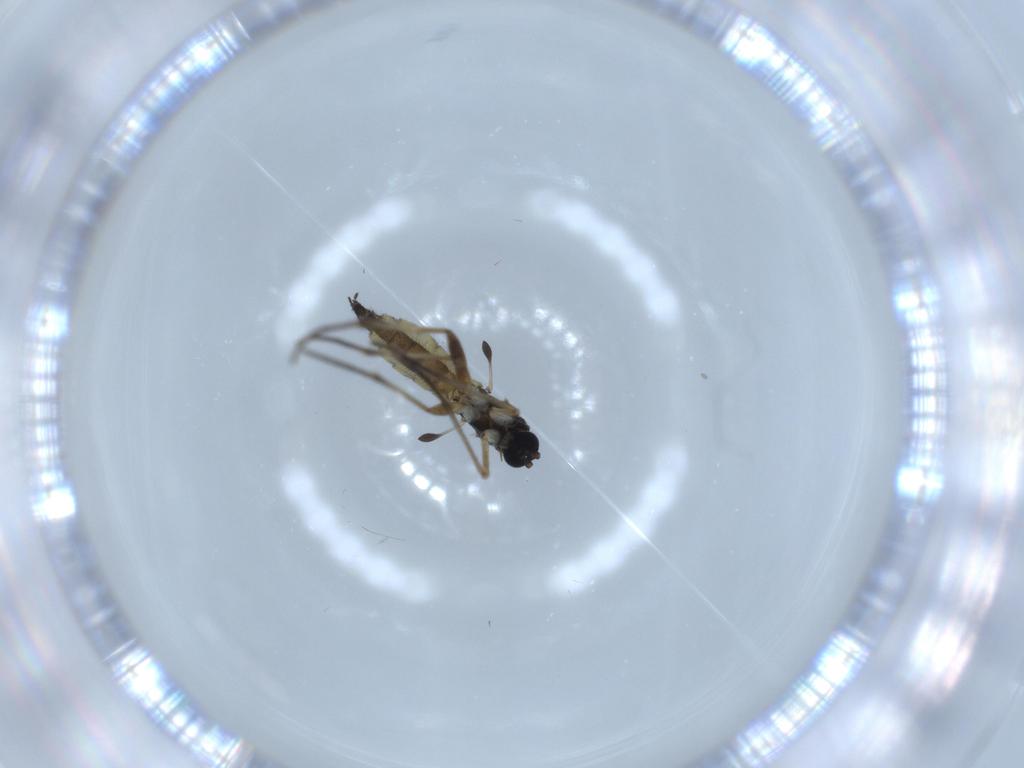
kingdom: Animalia
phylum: Arthropoda
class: Insecta
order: Diptera
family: Sciaridae
